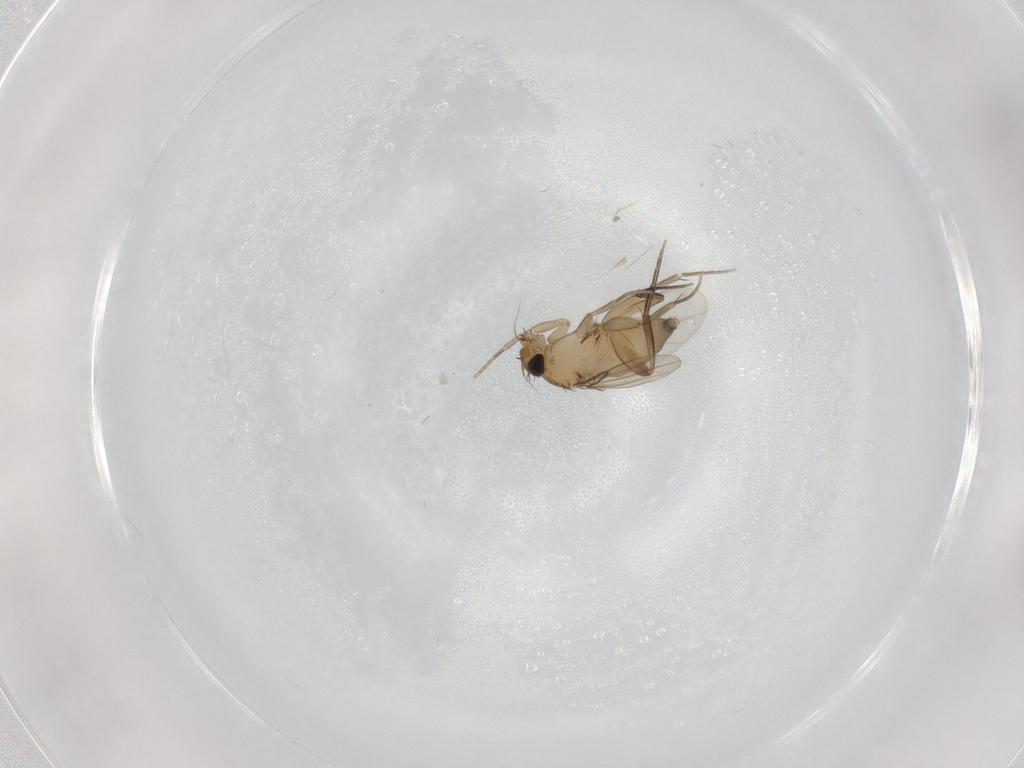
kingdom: Animalia
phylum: Arthropoda
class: Insecta
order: Diptera
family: Phoridae
